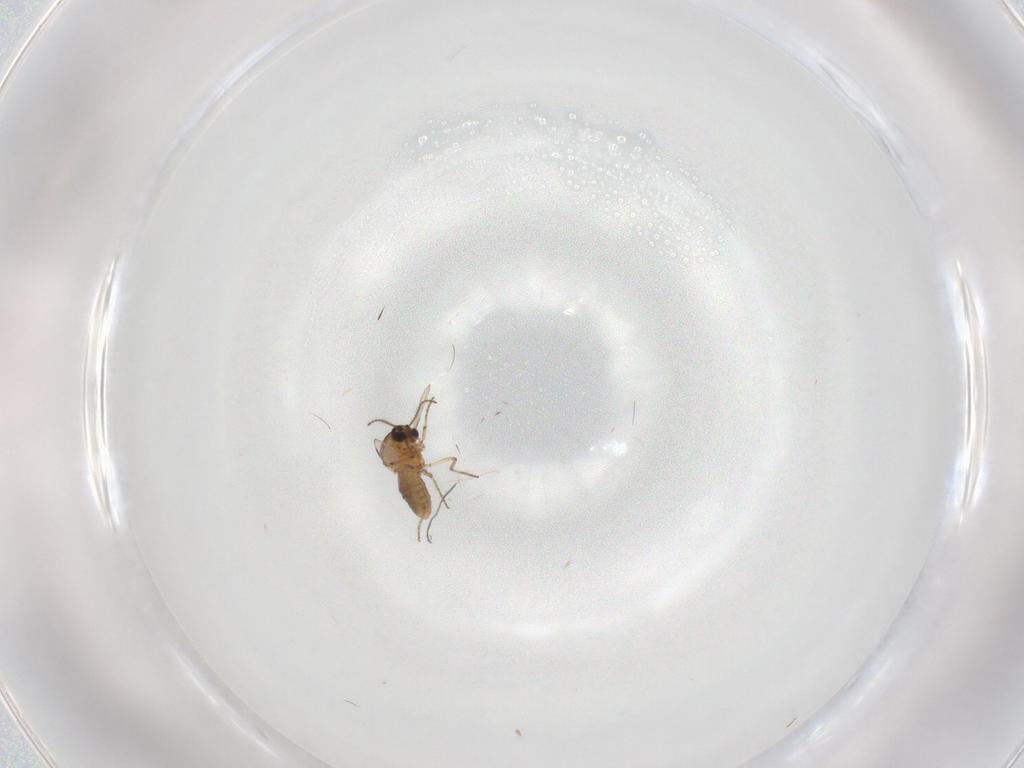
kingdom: Animalia
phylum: Arthropoda
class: Insecta
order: Diptera
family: Ceratopogonidae
